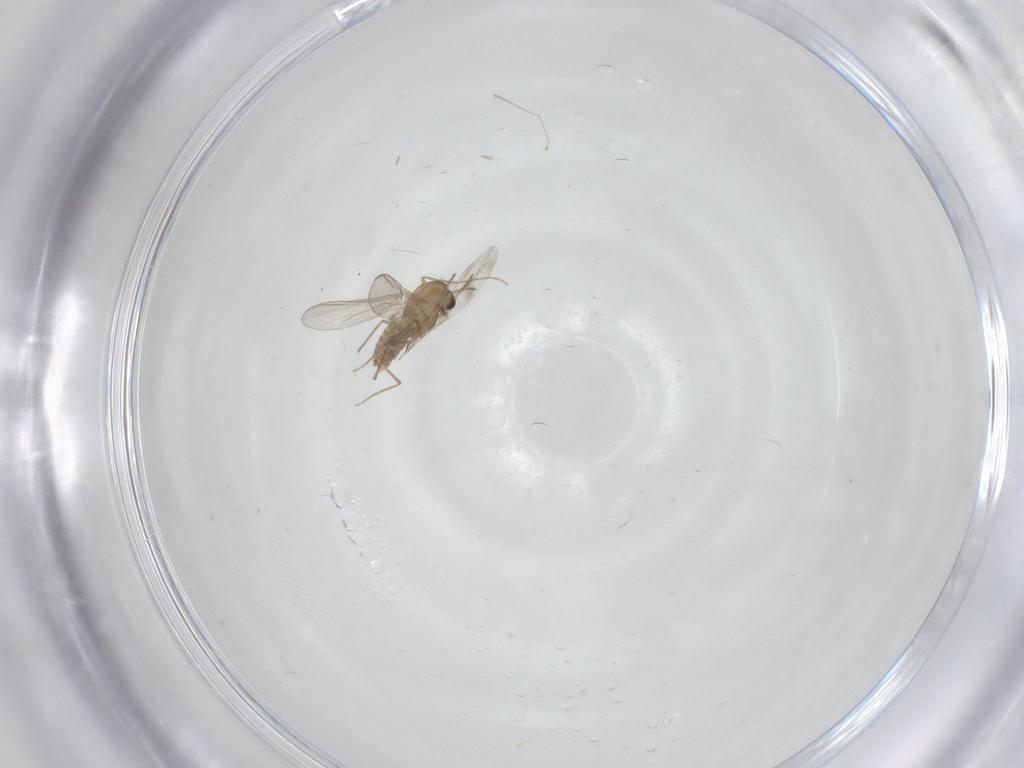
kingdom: Animalia
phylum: Arthropoda
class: Insecta
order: Diptera
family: Chironomidae
